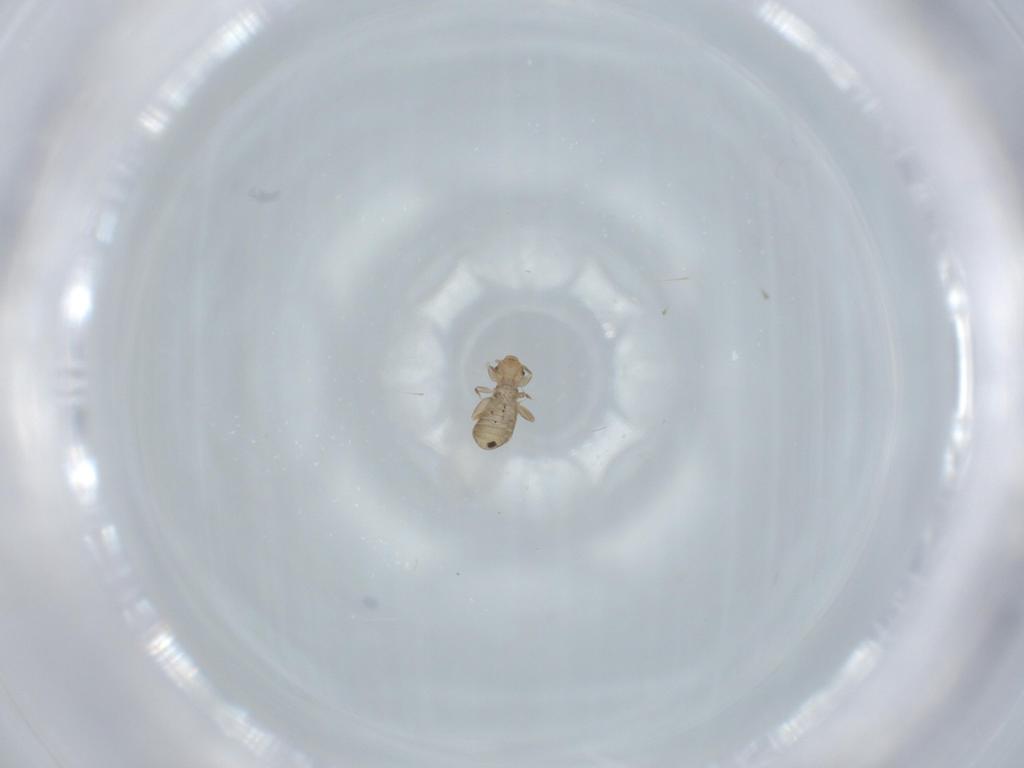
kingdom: Animalia
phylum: Arthropoda
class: Insecta
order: Psocodea
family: Liposcelididae
